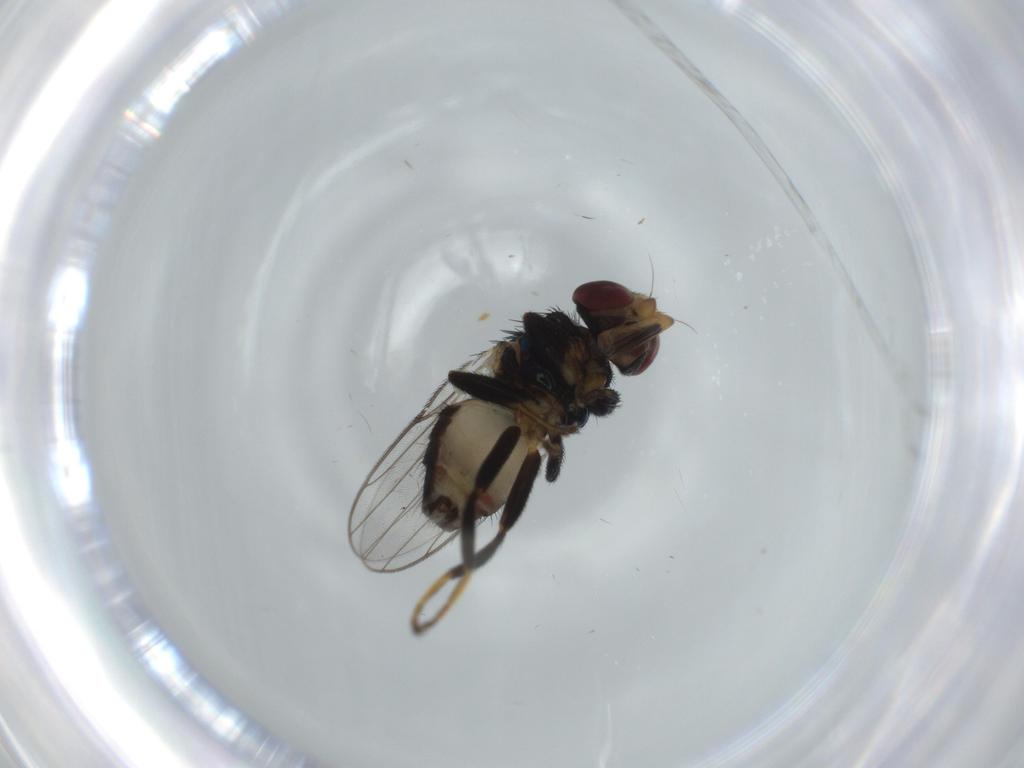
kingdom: Animalia
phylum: Arthropoda
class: Insecta
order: Diptera
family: Chloropidae
